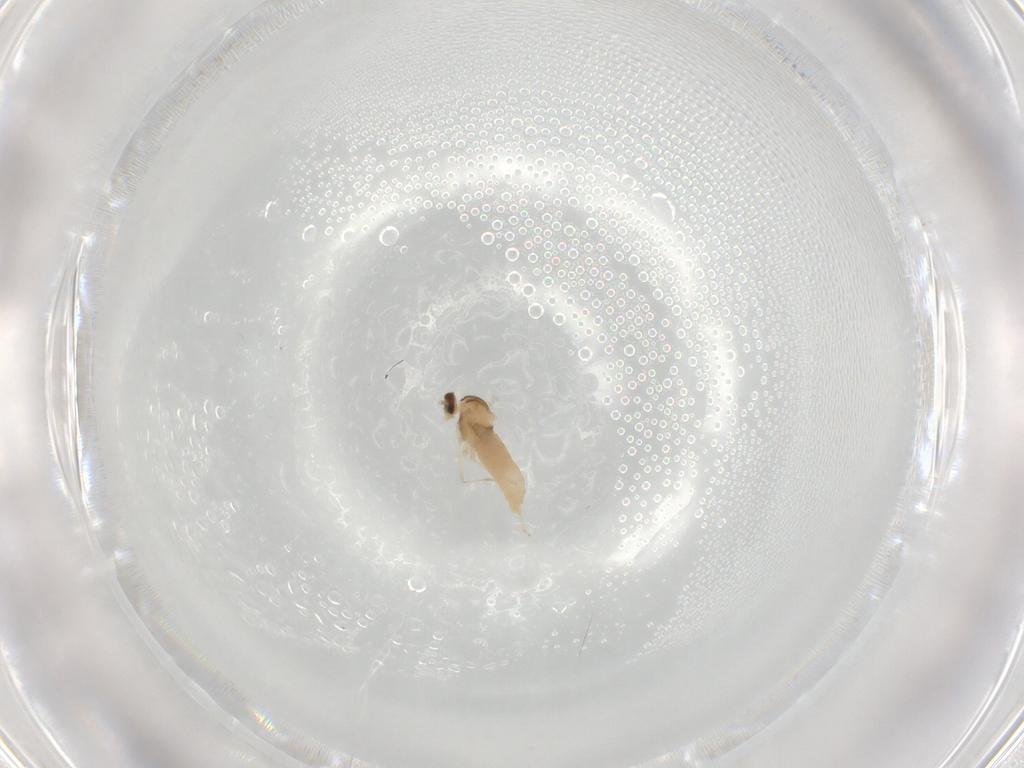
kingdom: Animalia
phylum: Arthropoda
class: Insecta
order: Diptera
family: Cecidomyiidae
